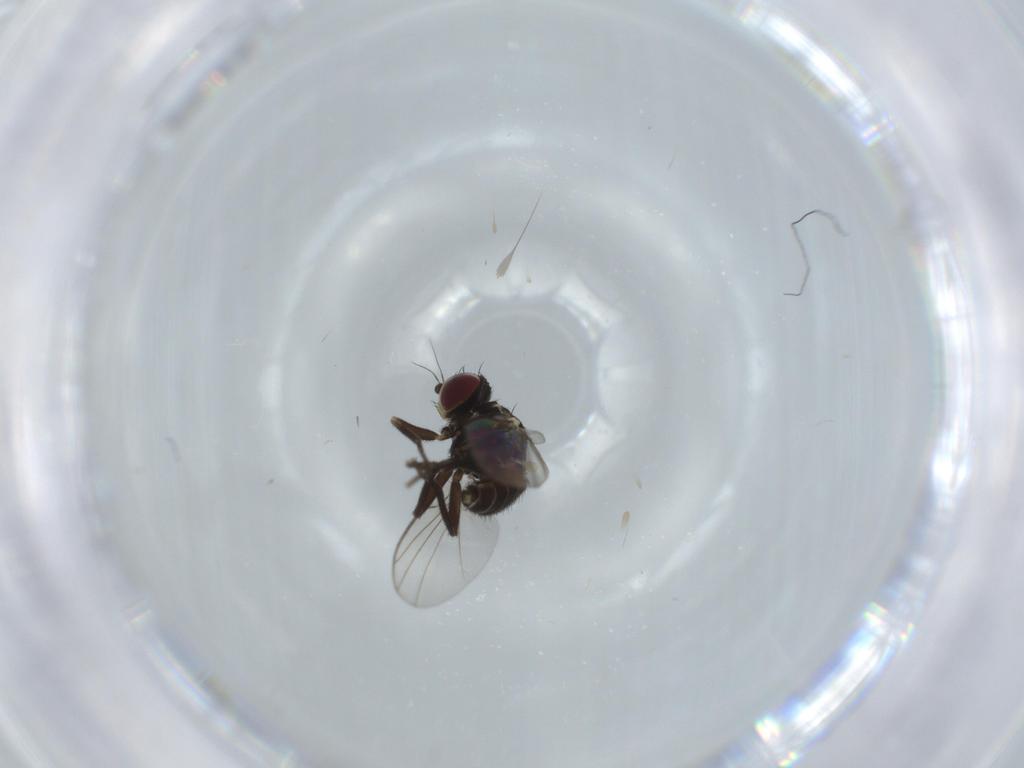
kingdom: Animalia
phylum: Arthropoda
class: Insecta
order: Diptera
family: Agromyzidae
